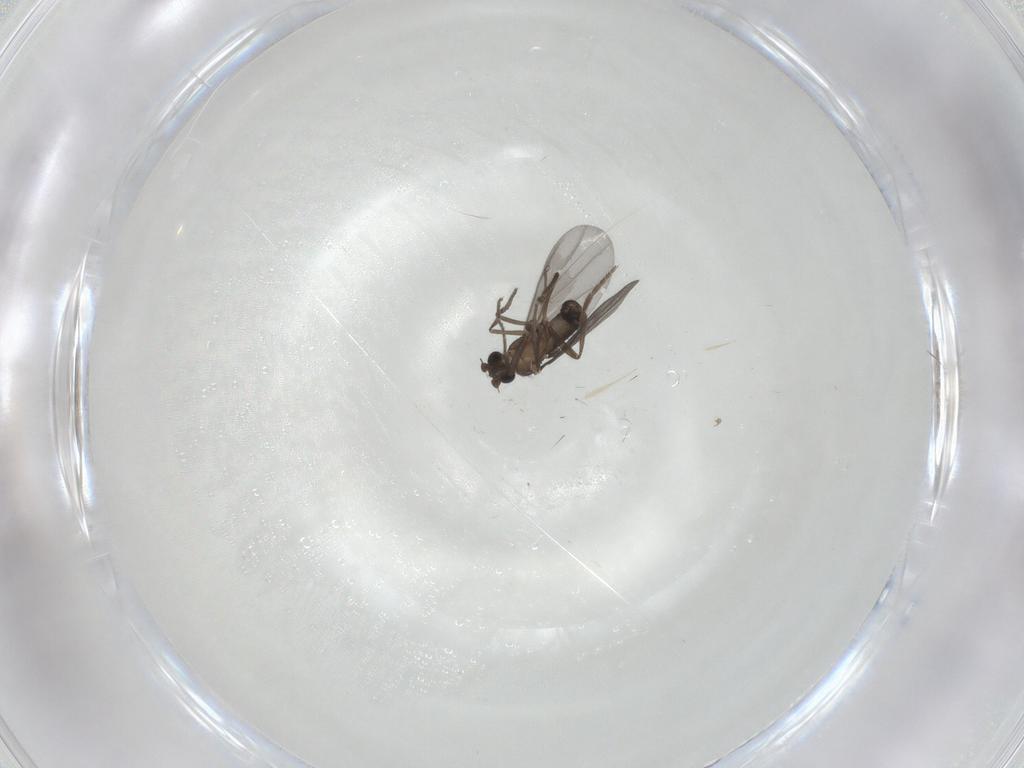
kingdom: Animalia
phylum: Arthropoda
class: Insecta
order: Diptera
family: Phoridae
